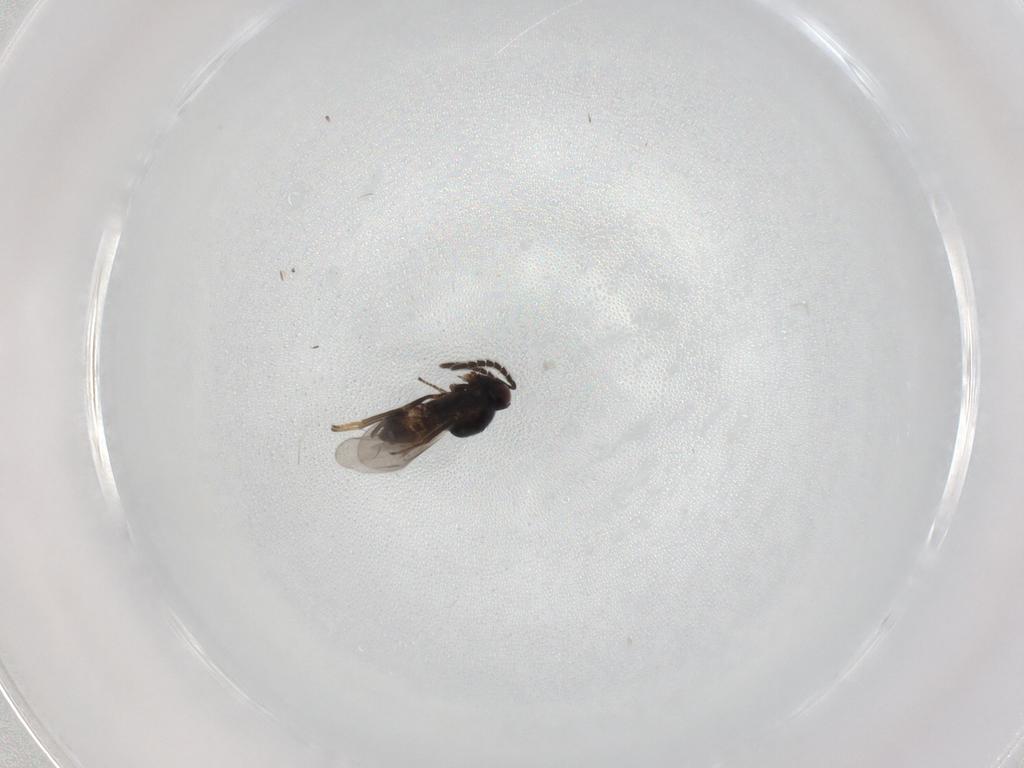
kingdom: Animalia
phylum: Arthropoda
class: Insecta
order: Hymenoptera
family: Encyrtidae
